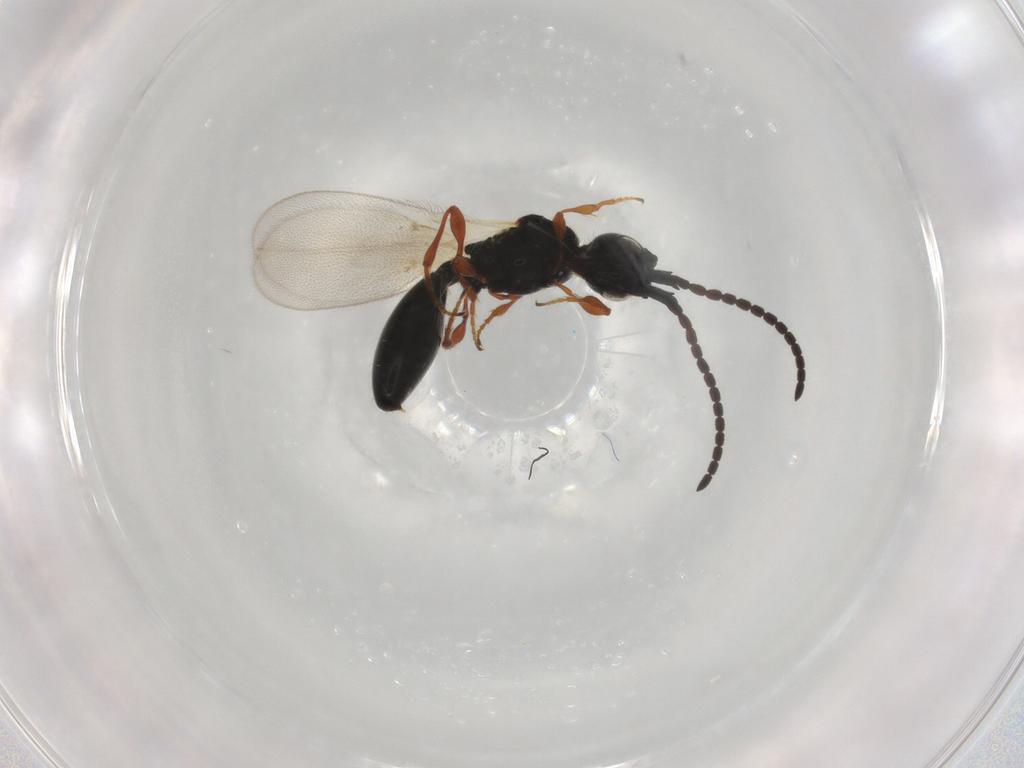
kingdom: Animalia
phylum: Arthropoda
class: Insecta
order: Hymenoptera
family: Diapriidae
